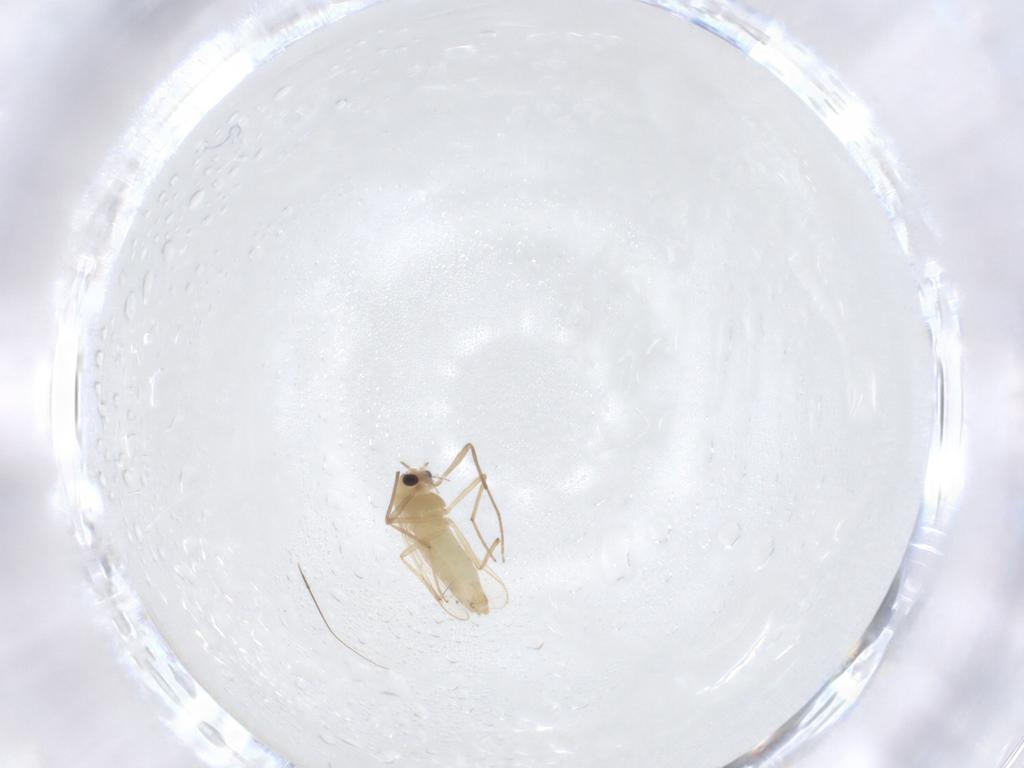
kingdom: Animalia
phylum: Arthropoda
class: Insecta
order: Diptera
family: Chironomidae
